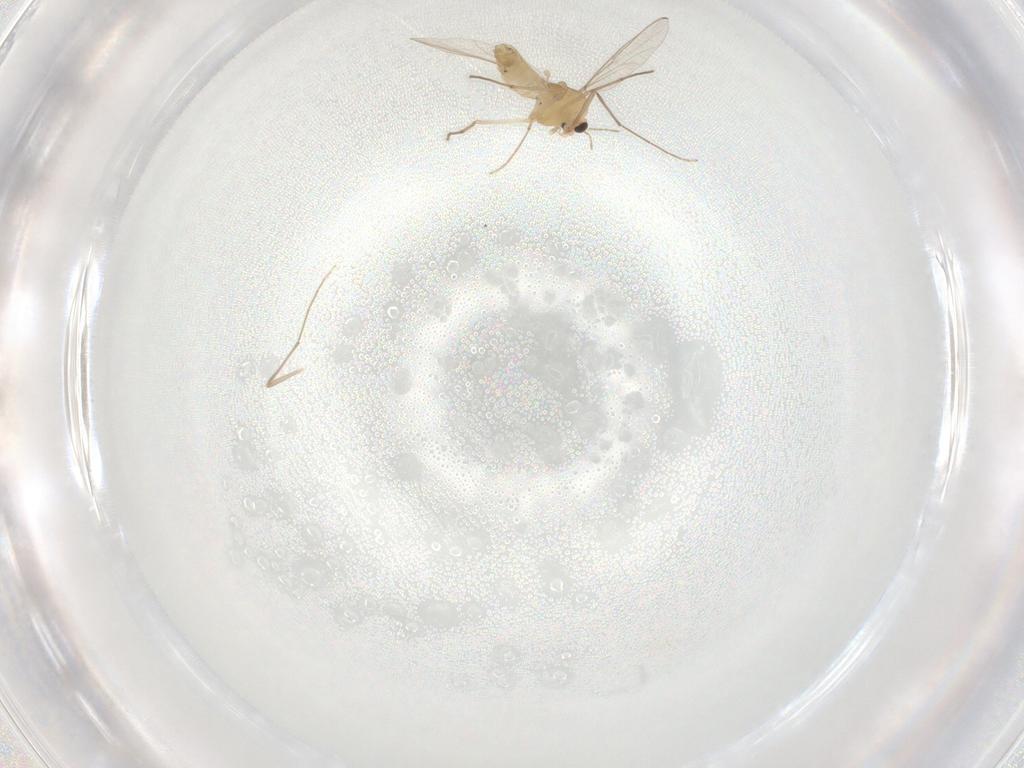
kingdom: Animalia
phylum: Arthropoda
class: Insecta
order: Diptera
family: Chironomidae
